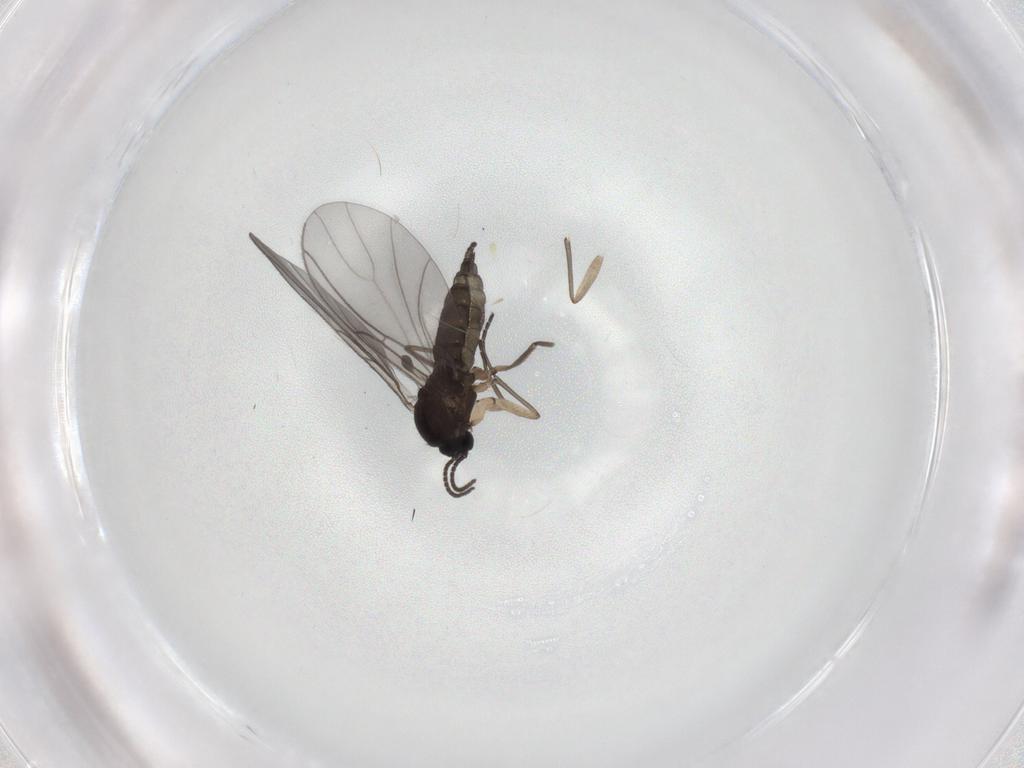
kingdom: Animalia
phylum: Arthropoda
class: Insecta
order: Diptera
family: Sciaridae
